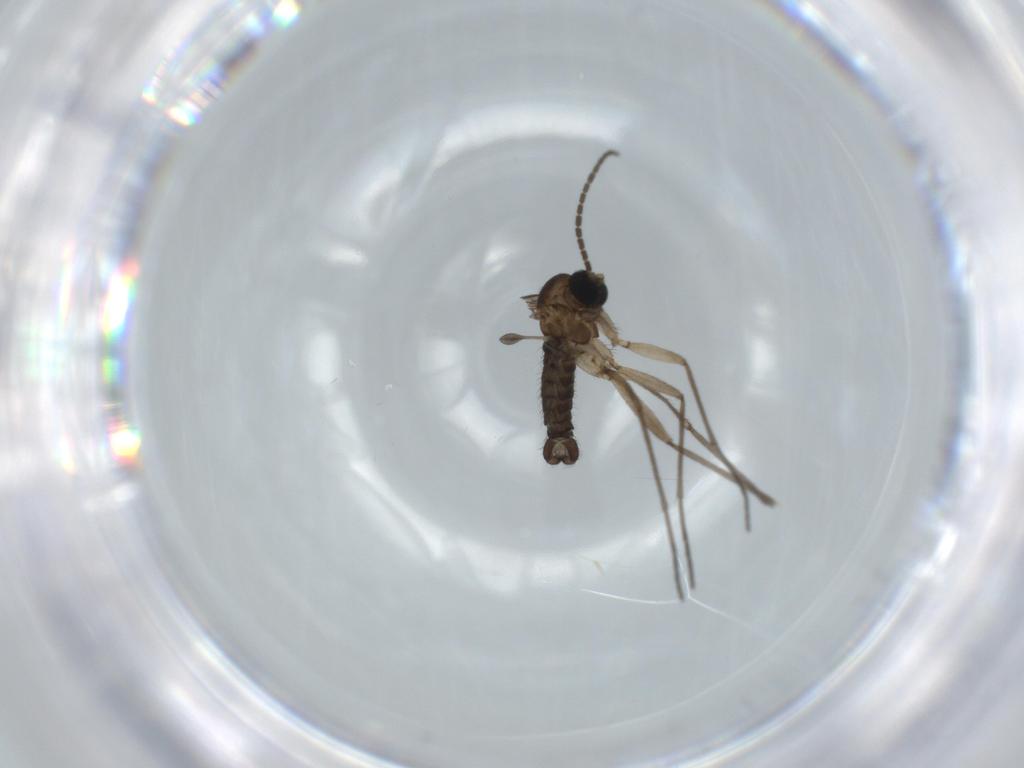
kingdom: Animalia
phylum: Arthropoda
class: Insecta
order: Diptera
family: Sciaridae
